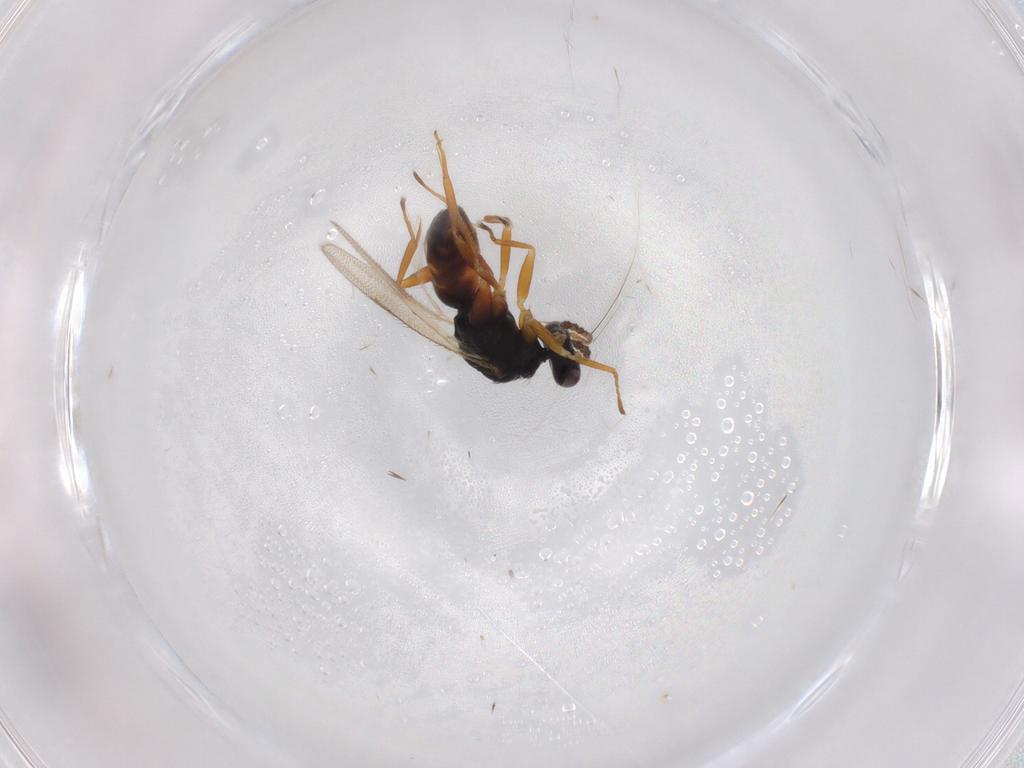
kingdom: Animalia
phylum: Arthropoda
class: Insecta
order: Hymenoptera
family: Eulophidae
